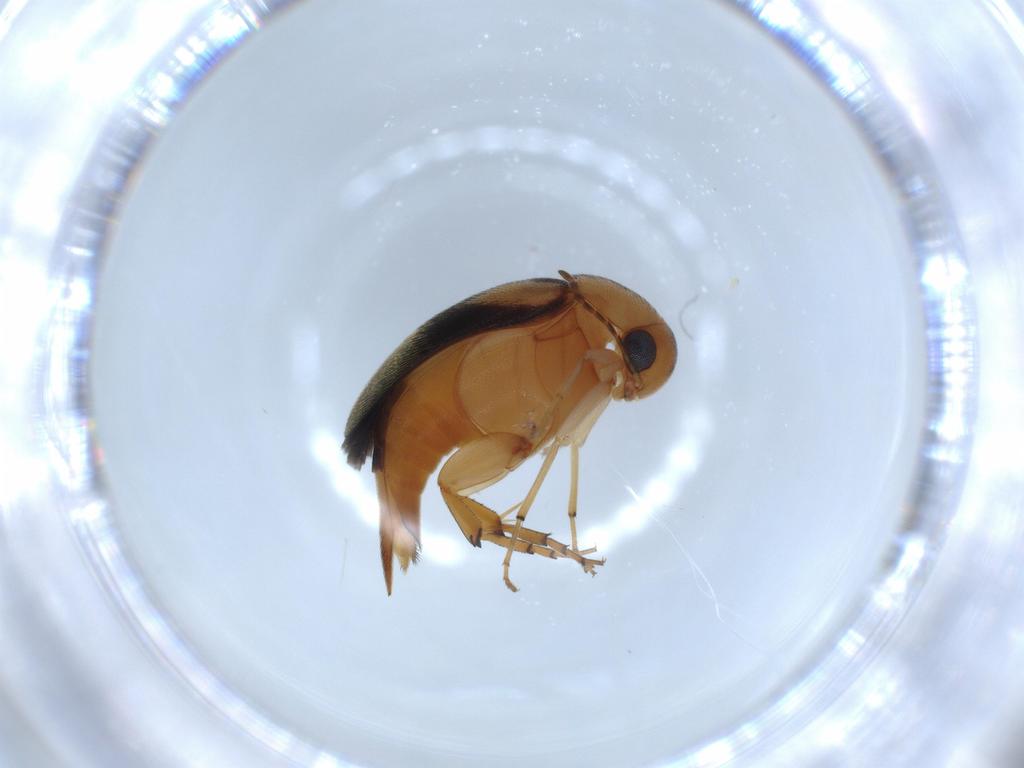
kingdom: Animalia
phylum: Arthropoda
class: Insecta
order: Coleoptera
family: Mordellidae
